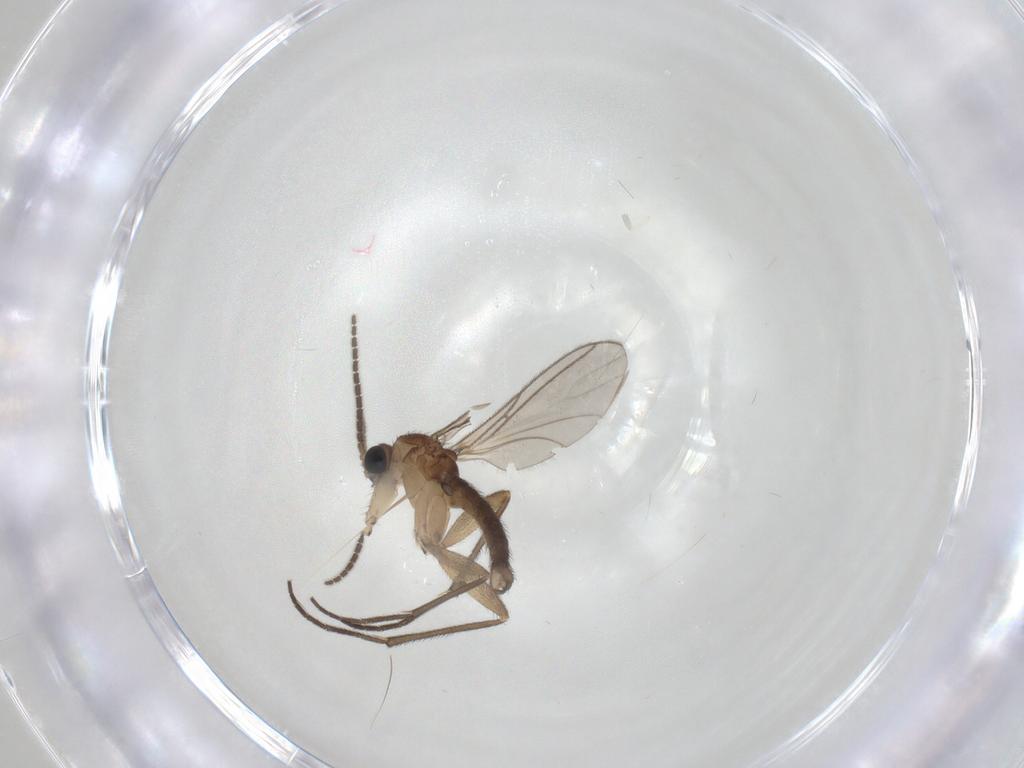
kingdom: Animalia
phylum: Arthropoda
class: Insecta
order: Diptera
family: Sciaridae
